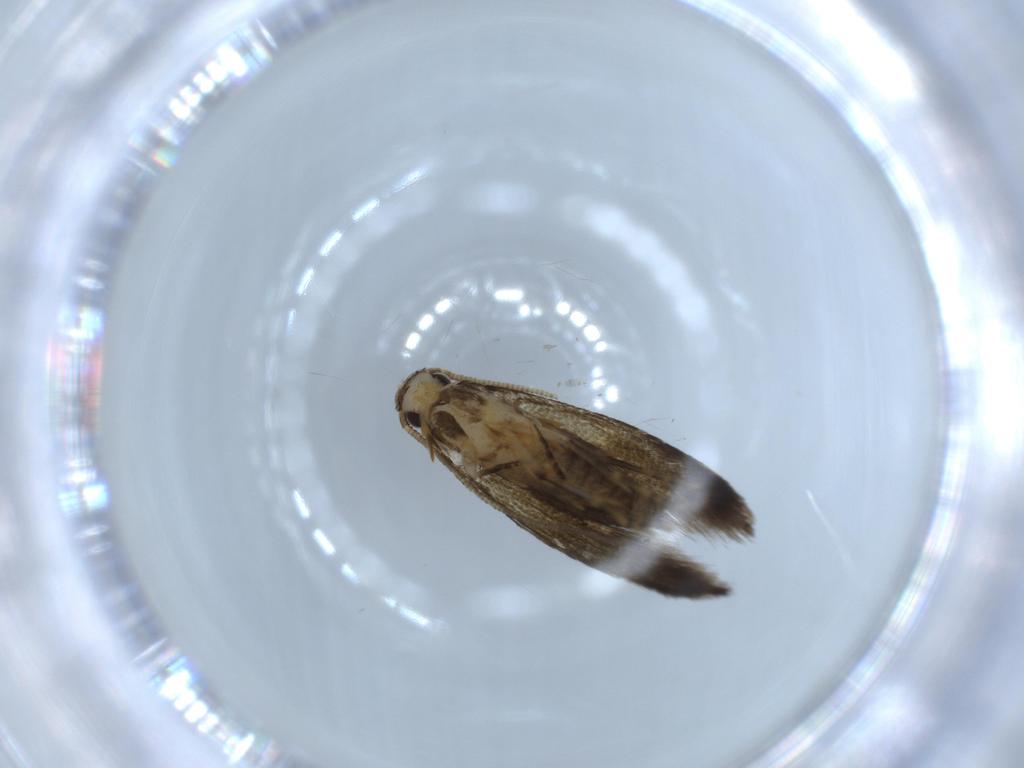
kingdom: Animalia
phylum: Arthropoda
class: Insecta
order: Lepidoptera
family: Tineidae
